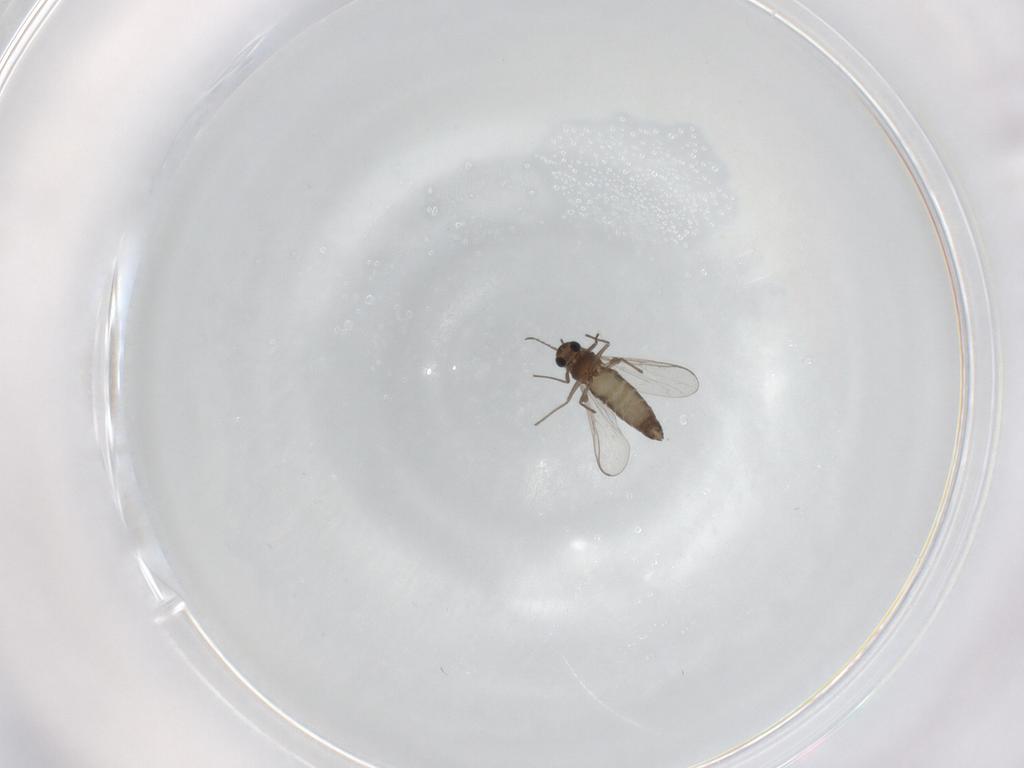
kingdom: Animalia
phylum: Arthropoda
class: Insecta
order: Diptera
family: Chironomidae
